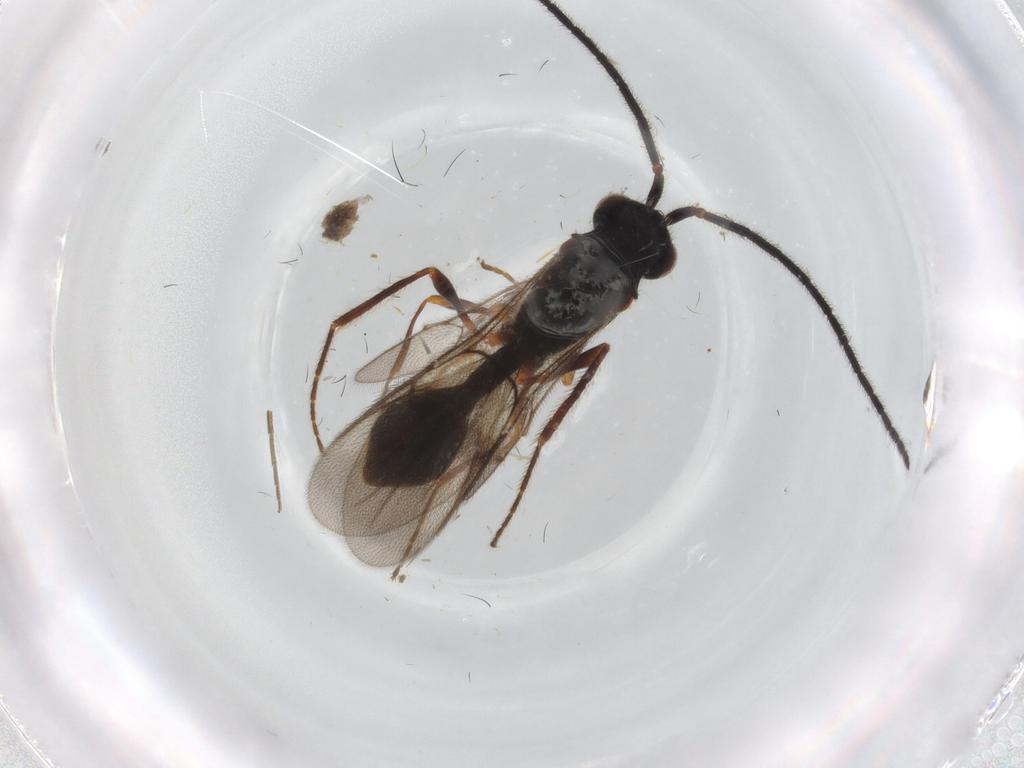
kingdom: Animalia
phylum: Arthropoda
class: Insecta
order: Hymenoptera
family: Diapriidae
